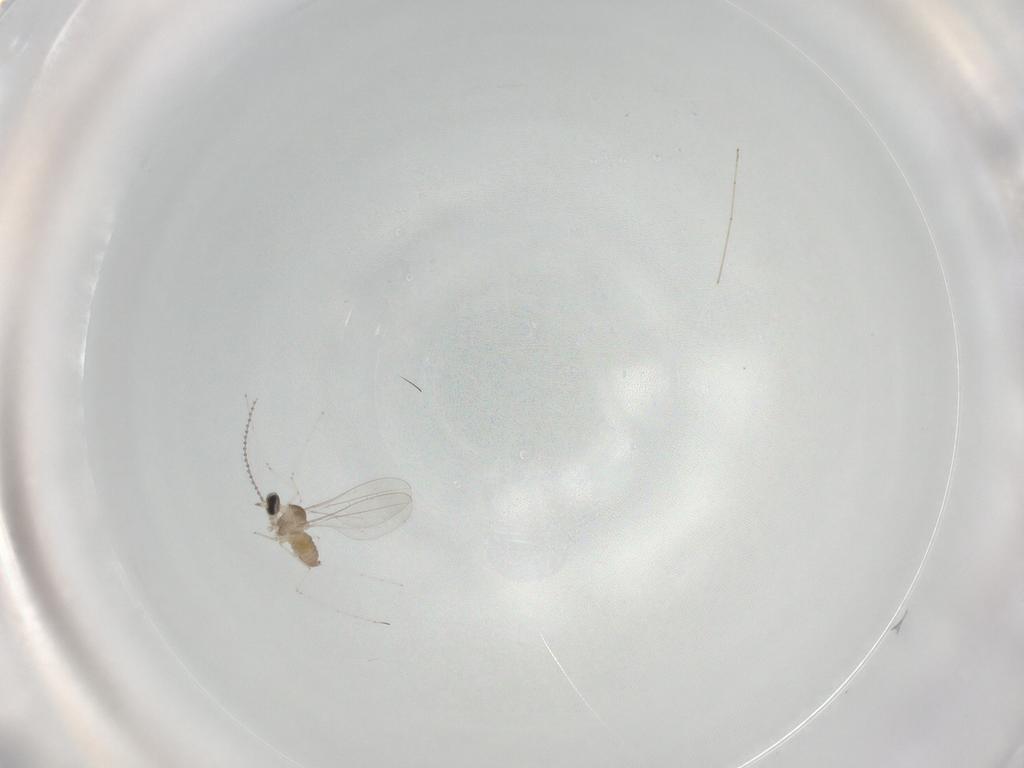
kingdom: Animalia
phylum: Arthropoda
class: Insecta
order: Diptera
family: Cecidomyiidae
